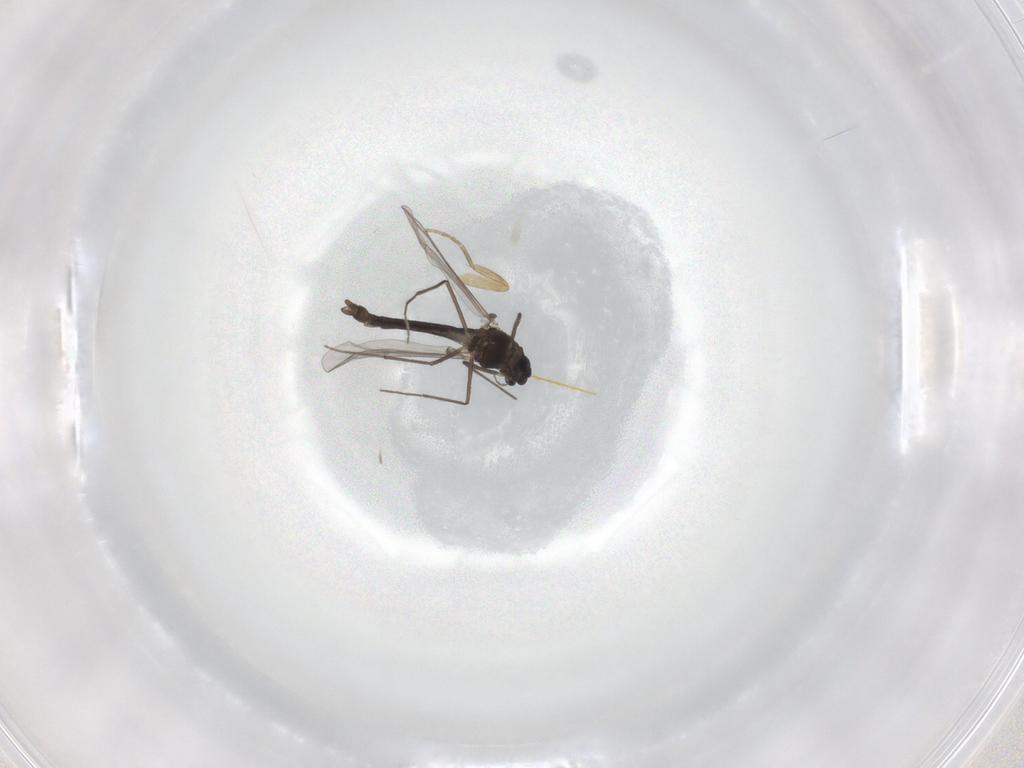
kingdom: Animalia
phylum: Arthropoda
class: Insecta
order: Diptera
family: Chironomidae
